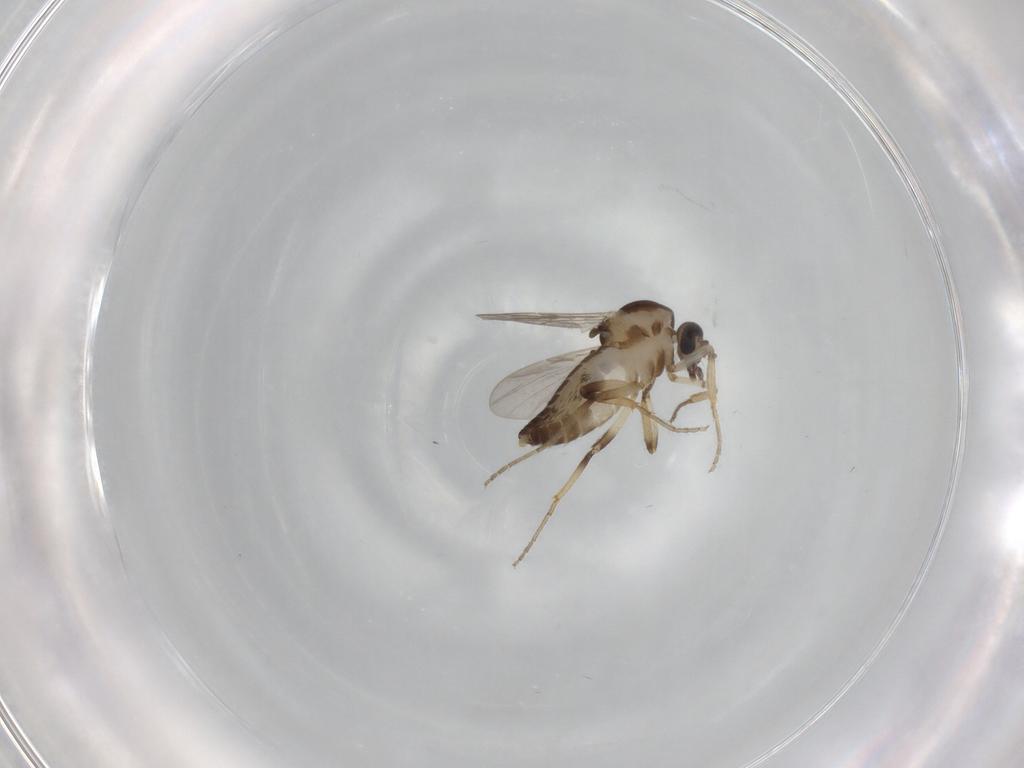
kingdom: Animalia
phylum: Arthropoda
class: Insecta
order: Diptera
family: Ceratopogonidae
